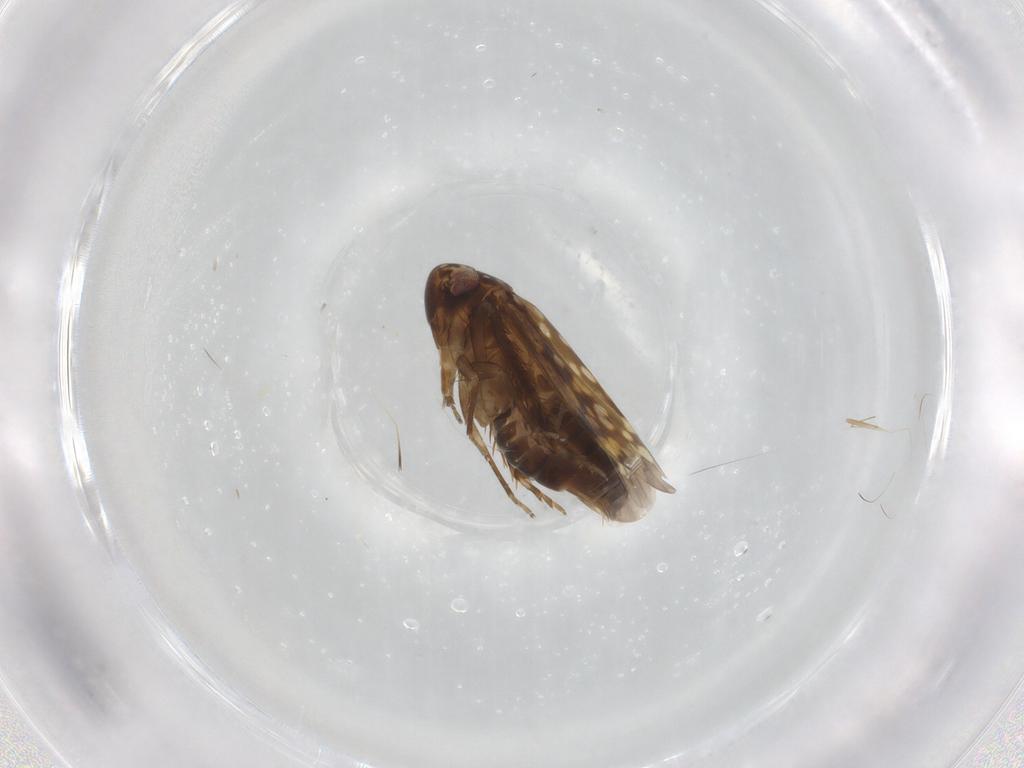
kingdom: Animalia
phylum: Arthropoda
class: Insecta
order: Hemiptera
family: Cicadellidae
